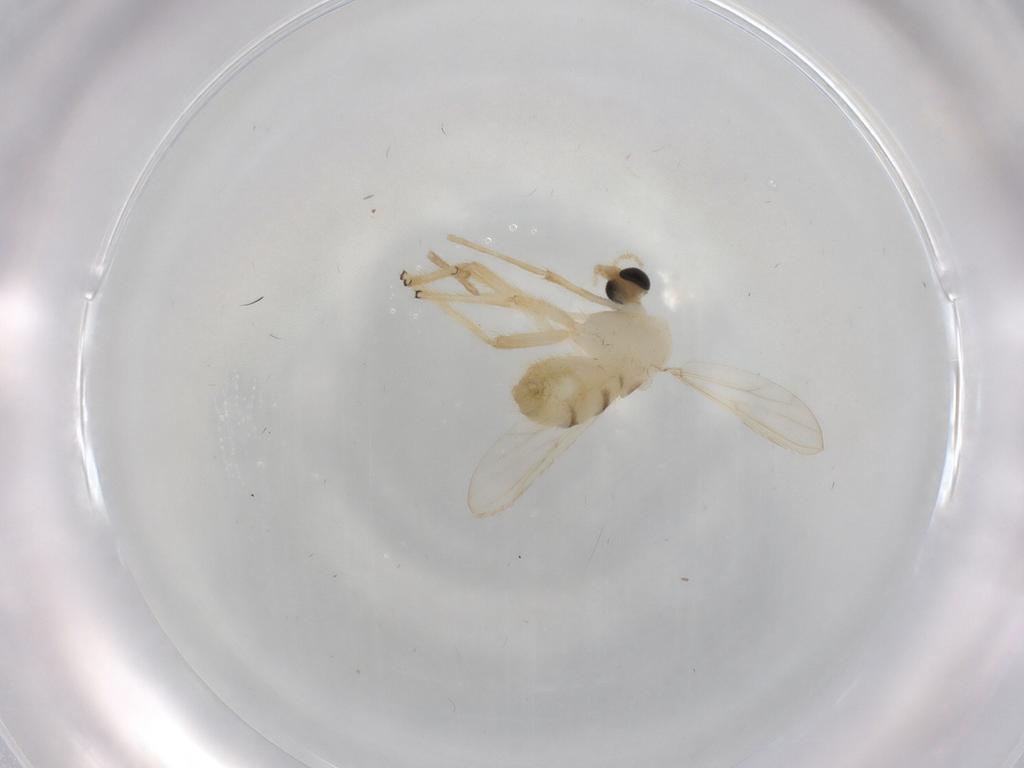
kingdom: Animalia
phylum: Arthropoda
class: Insecta
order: Diptera
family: Chironomidae
